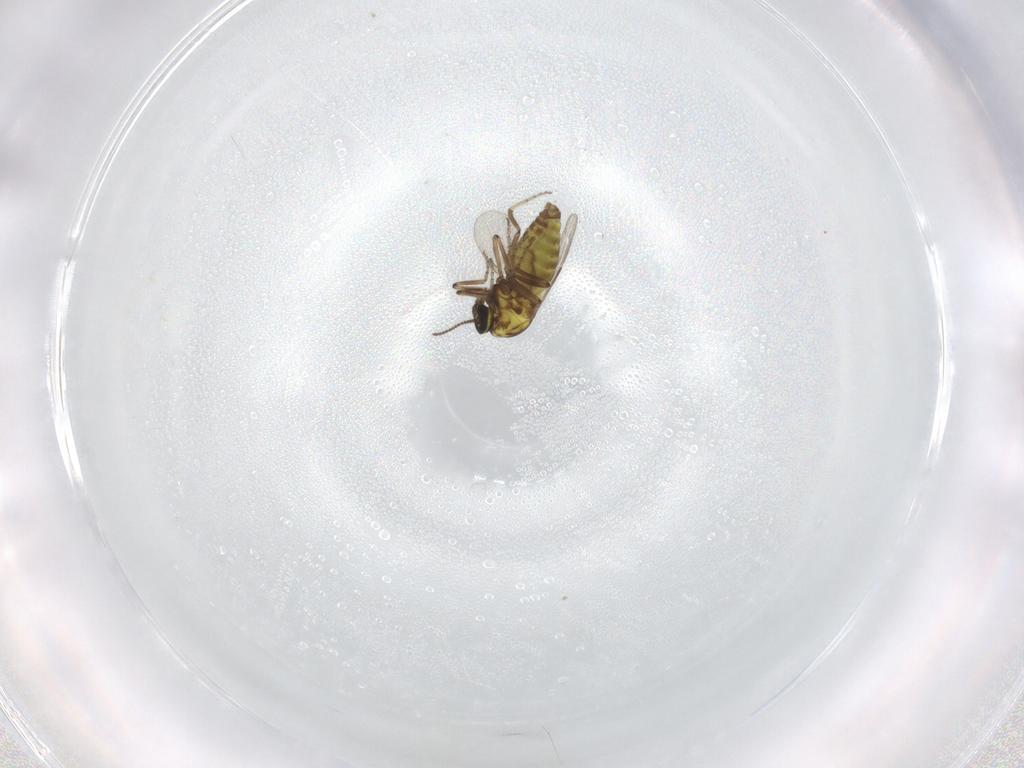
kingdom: Animalia
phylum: Arthropoda
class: Insecta
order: Diptera
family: Ceratopogonidae
